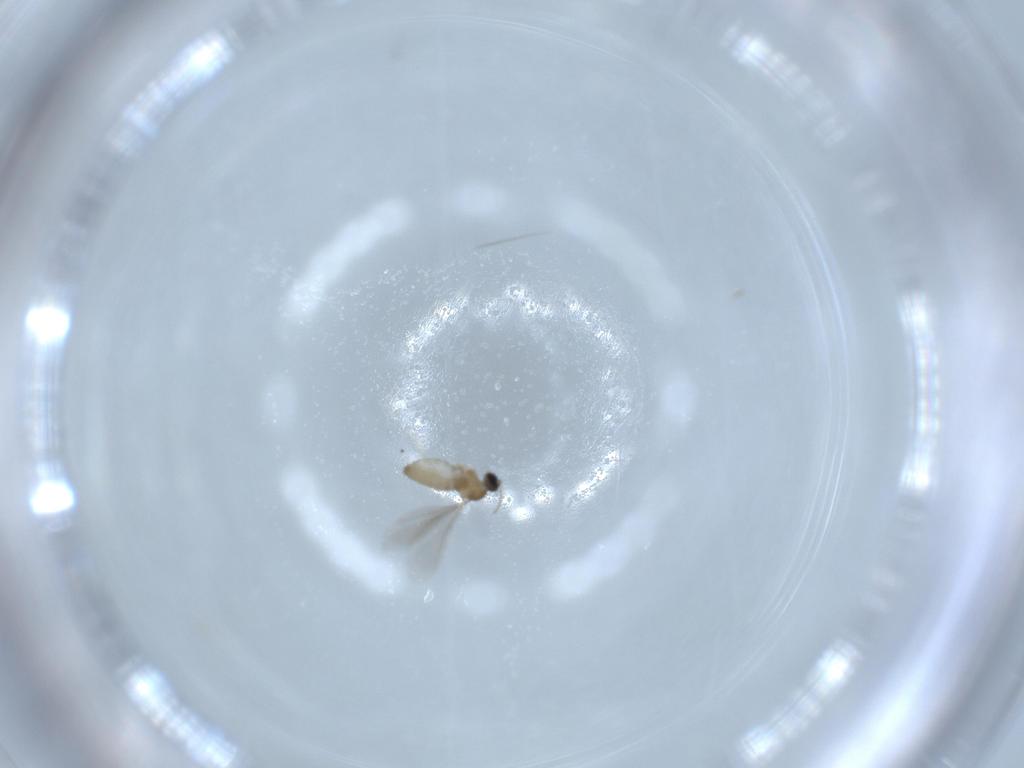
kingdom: Animalia
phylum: Arthropoda
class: Insecta
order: Diptera
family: Cecidomyiidae
